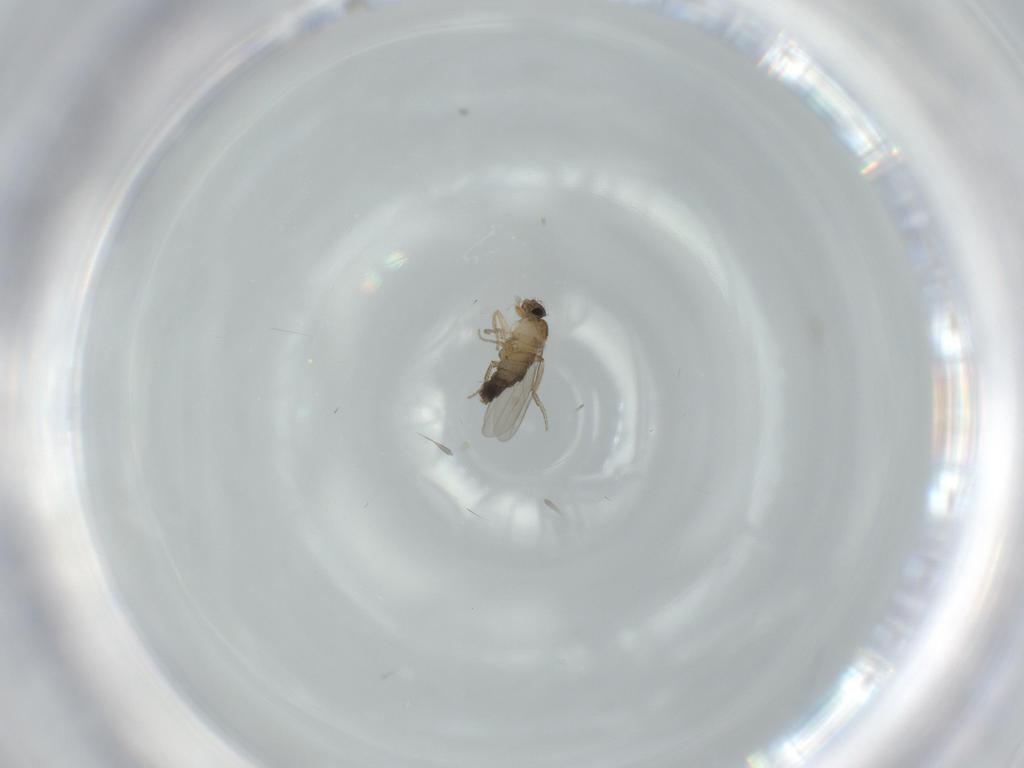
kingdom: Animalia
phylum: Arthropoda
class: Insecta
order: Diptera
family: Phoridae
